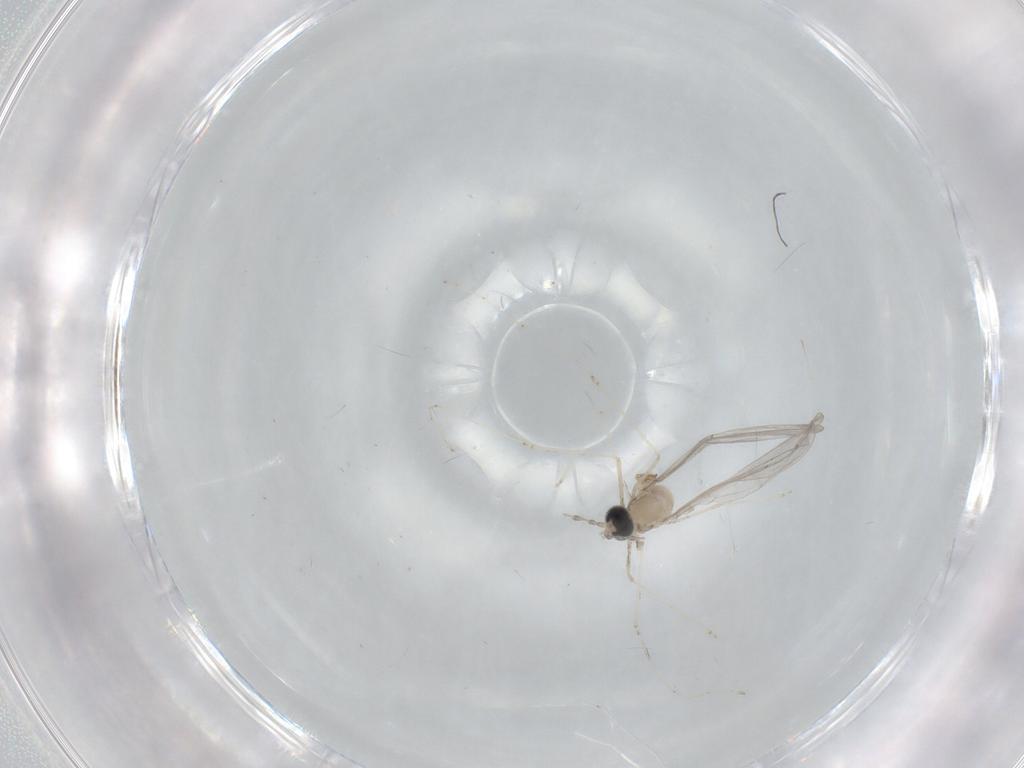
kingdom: Animalia
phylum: Arthropoda
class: Insecta
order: Diptera
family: Cecidomyiidae
